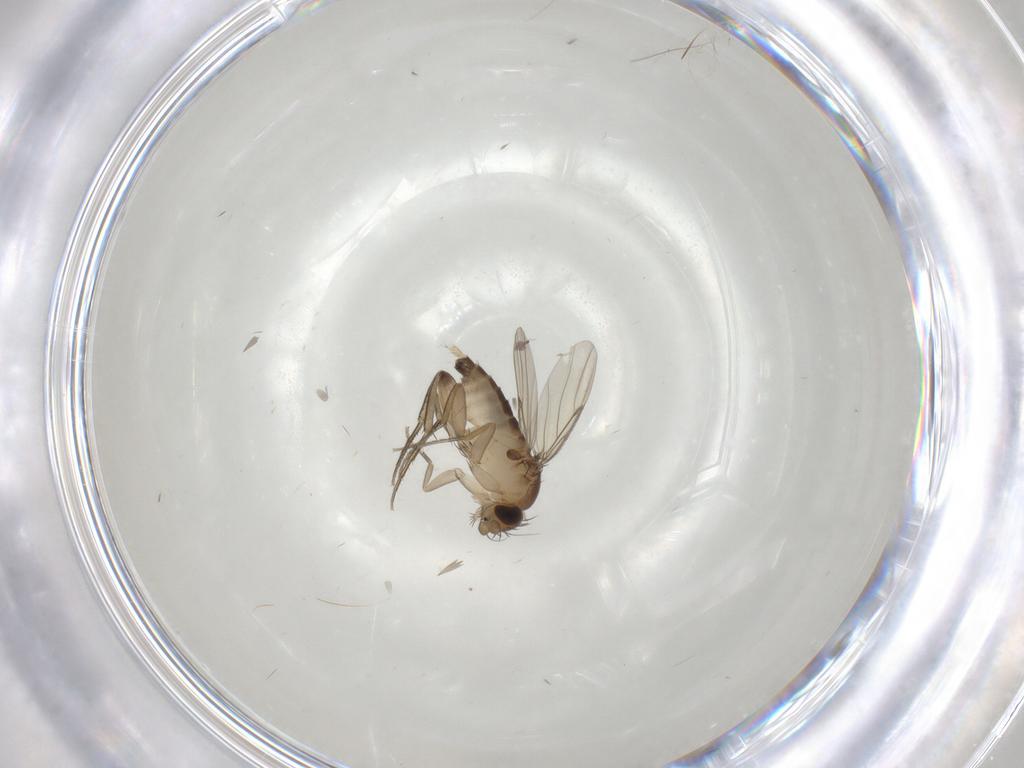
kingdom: Animalia
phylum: Arthropoda
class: Insecta
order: Diptera
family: Phoridae
